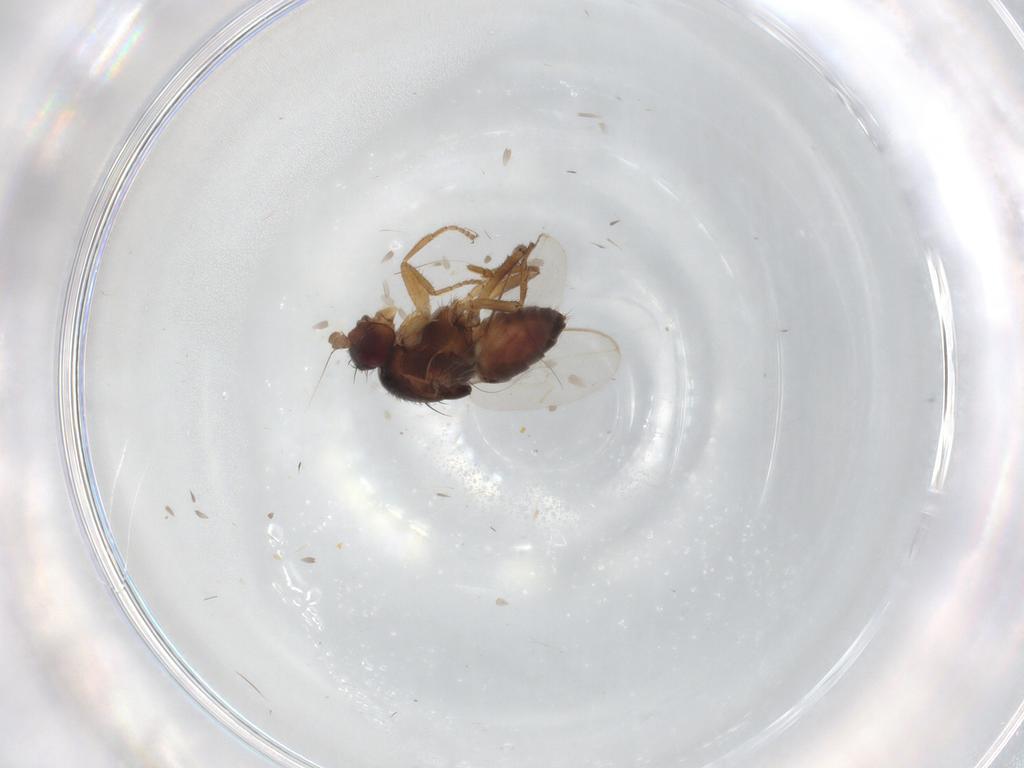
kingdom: Animalia
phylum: Arthropoda
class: Insecta
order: Diptera
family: Sphaeroceridae
